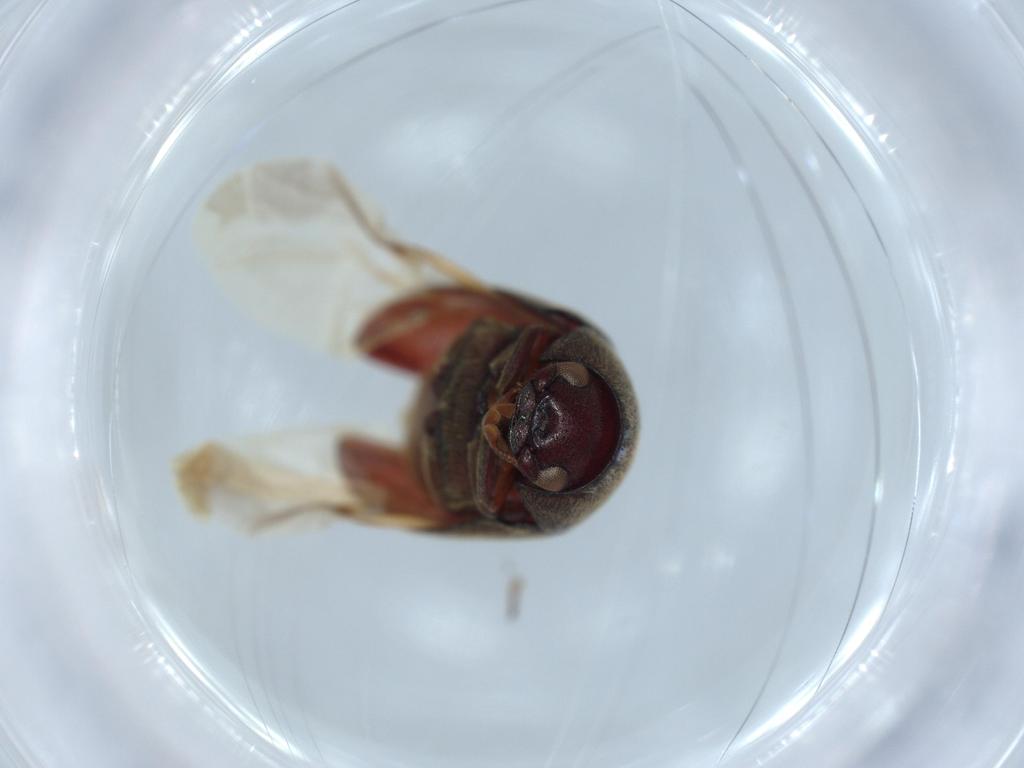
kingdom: Animalia
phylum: Arthropoda
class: Insecta
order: Coleoptera
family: Ptinidae
